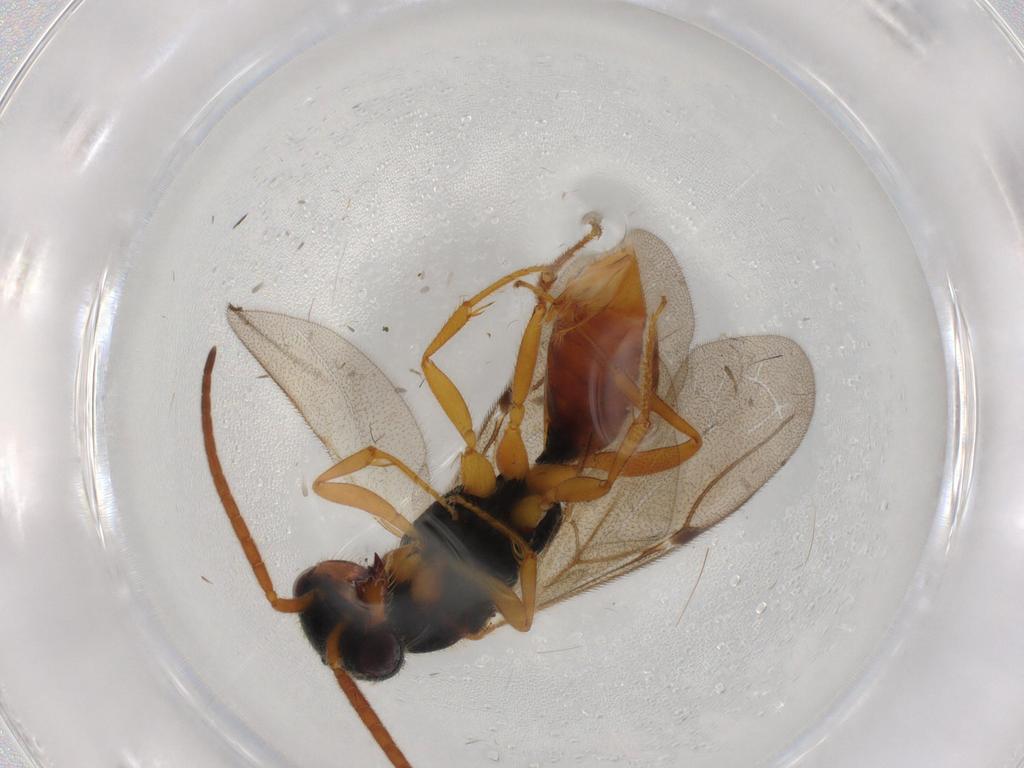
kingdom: Animalia
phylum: Arthropoda
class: Insecta
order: Hymenoptera
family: Bethylidae
